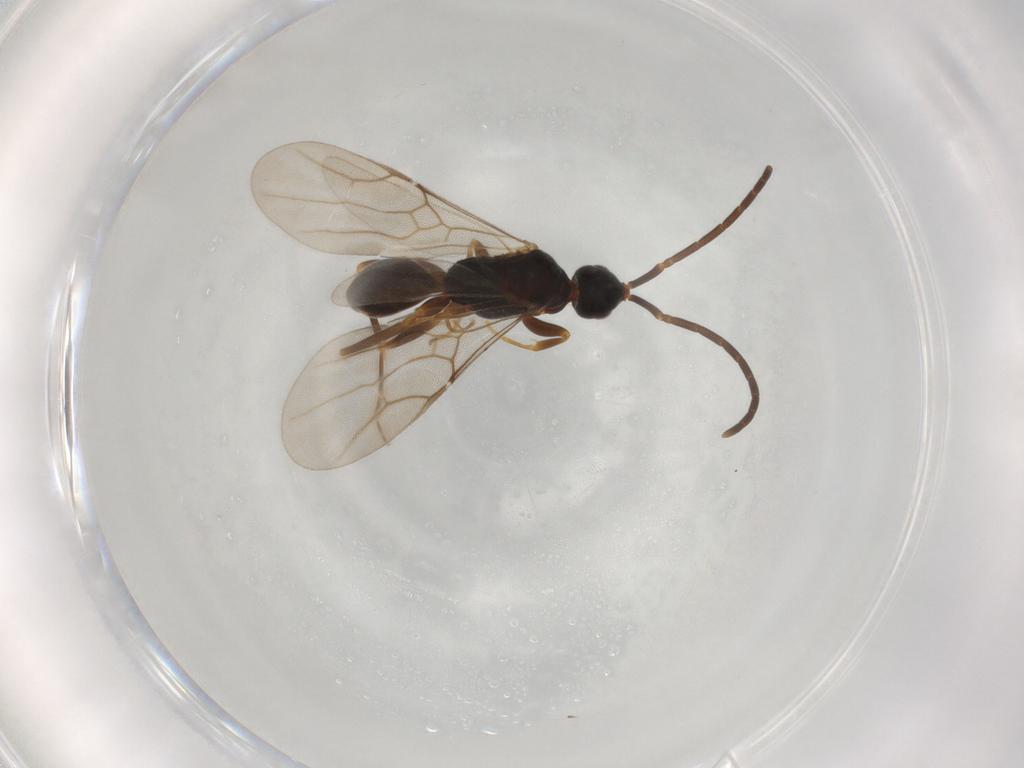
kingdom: Animalia
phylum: Arthropoda
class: Insecta
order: Hymenoptera
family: Embolemidae
